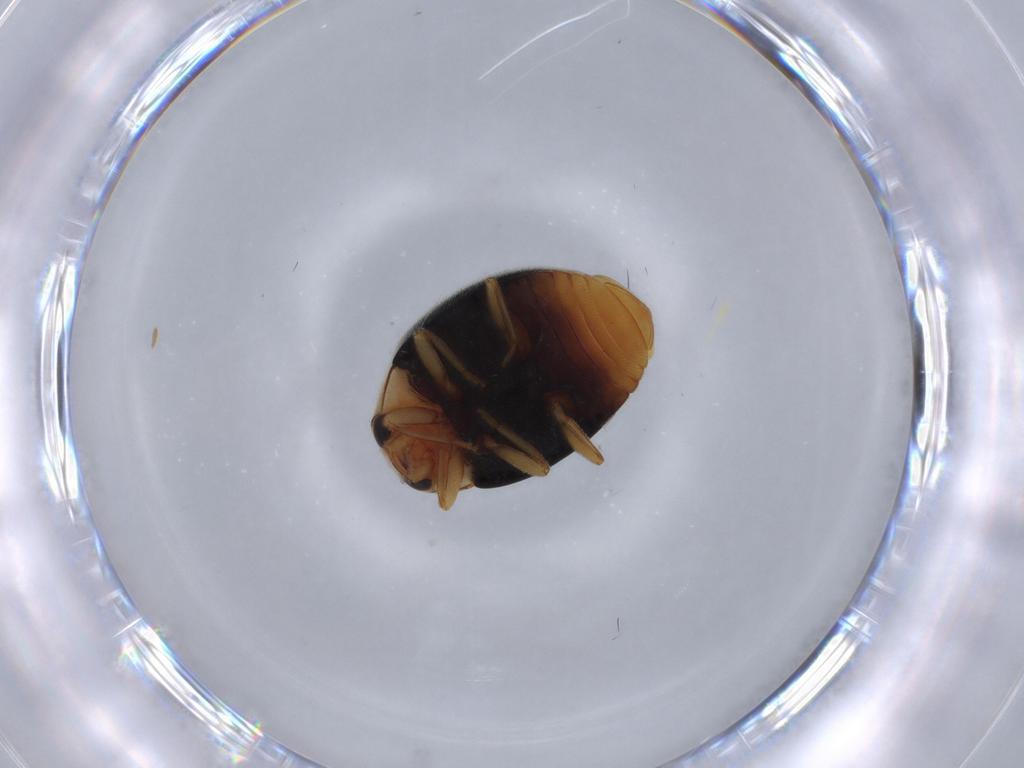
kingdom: Animalia
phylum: Arthropoda
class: Insecta
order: Coleoptera
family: Coccinellidae
